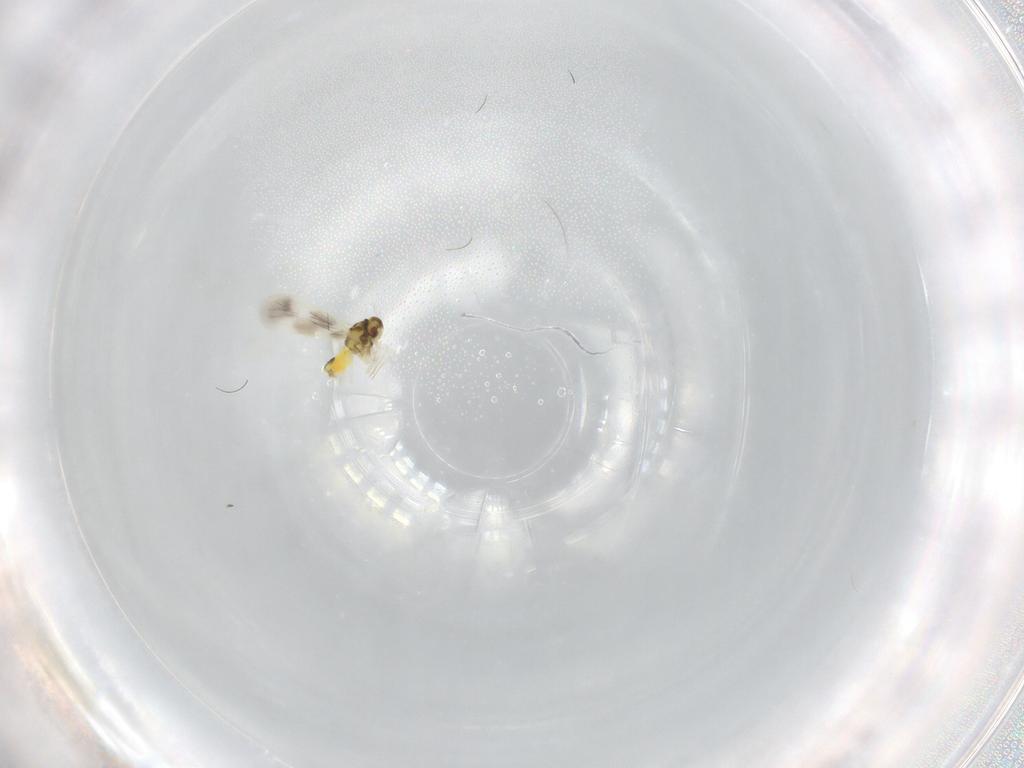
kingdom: Animalia
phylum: Arthropoda
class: Insecta
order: Hemiptera
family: Aleyrodidae
